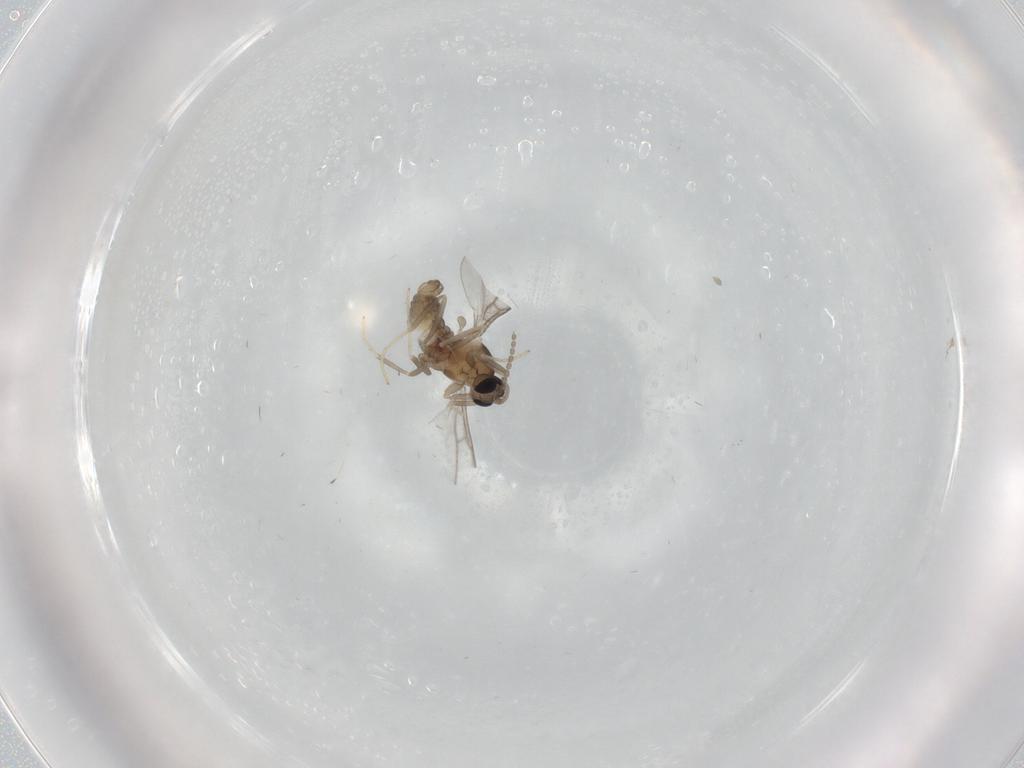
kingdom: Animalia
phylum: Arthropoda
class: Insecta
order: Diptera
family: Cecidomyiidae
